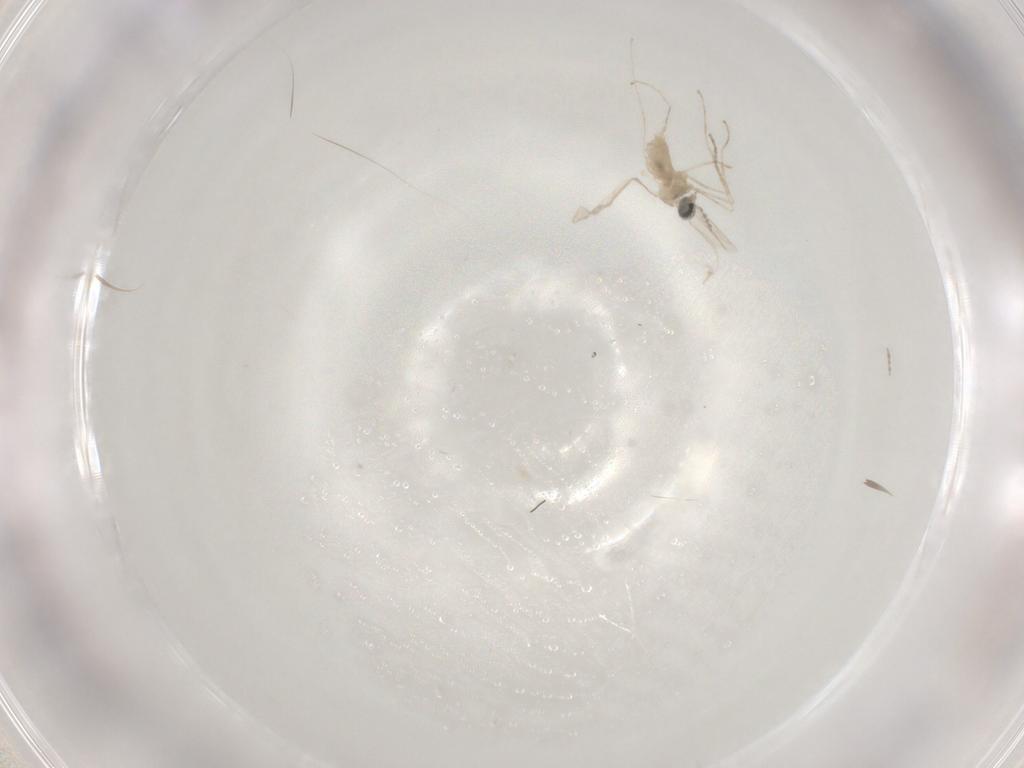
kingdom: Animalia
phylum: Arthropoda
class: Insecta
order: Diptera
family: Cecidomyiidae
